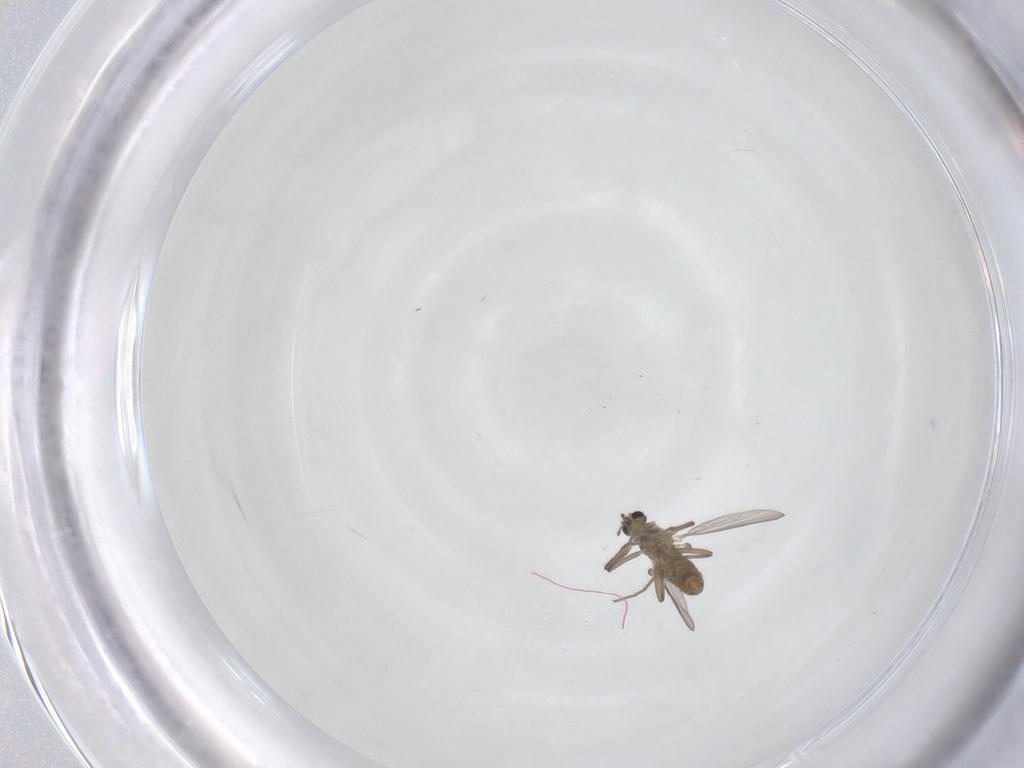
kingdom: Animalia
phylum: Arthropoda
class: Insecta
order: Diptera
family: Chironomidae
